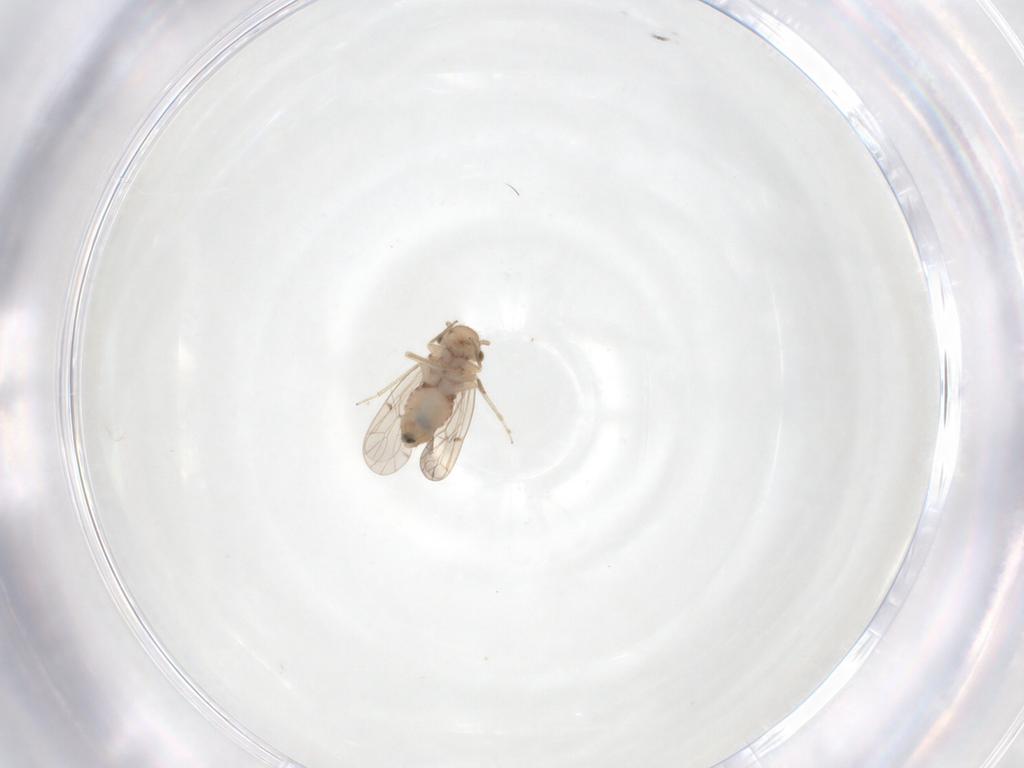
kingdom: Animalia
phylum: Arthropoda
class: Insecta
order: Psocodea
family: Ectopsocidae
